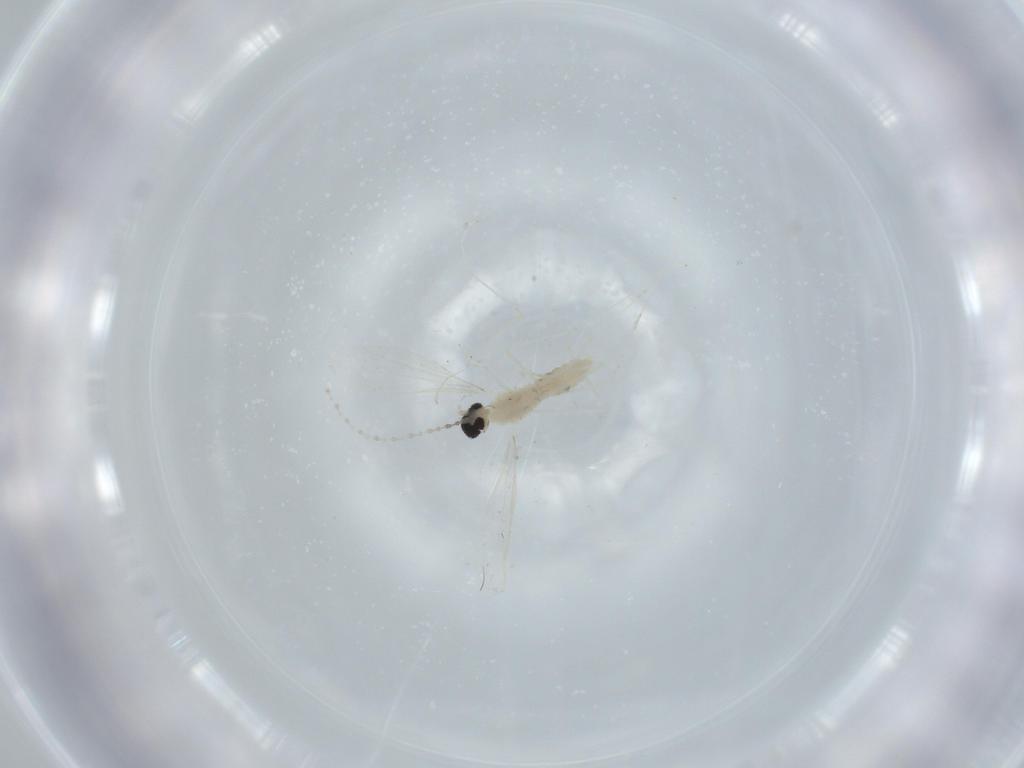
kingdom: Animalia
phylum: Arthropoda
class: Insecta
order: Diptera
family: Cecidomyiidae
